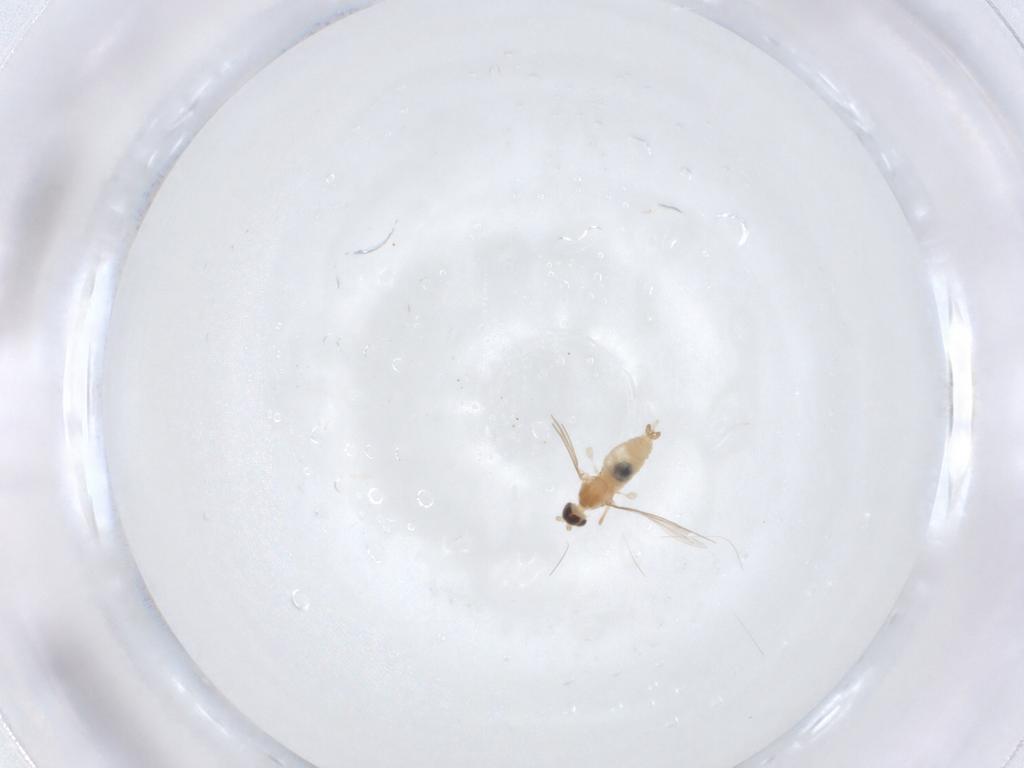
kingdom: Animalia
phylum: Arthropoda
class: Insecta
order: Diptera
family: Cecidomyiidae
